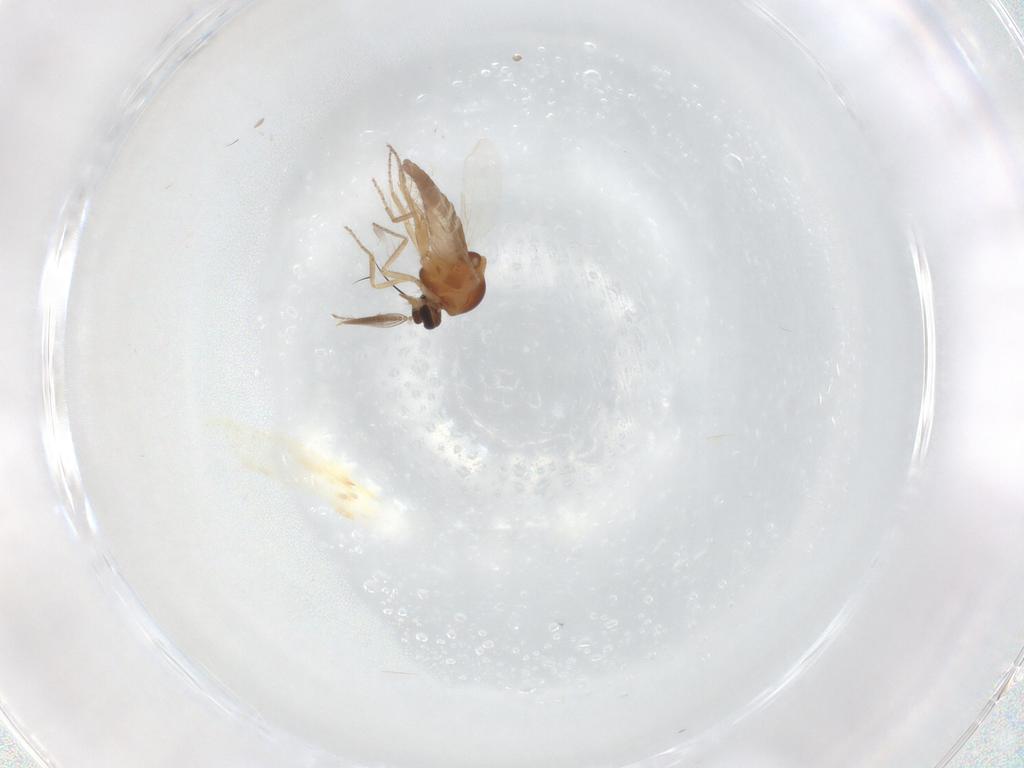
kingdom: Animalia
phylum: Arthropoda
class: Insecta
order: Diptera
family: Ceratopogonidae
